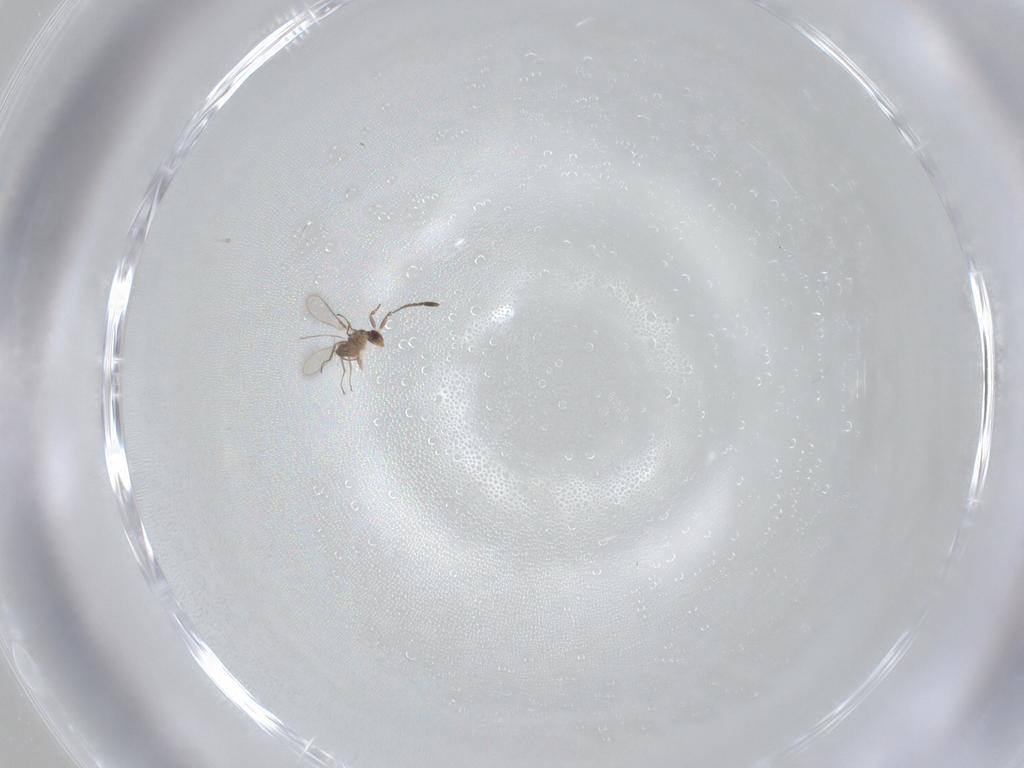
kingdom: Animalia
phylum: Arthropoda
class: Insecta
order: Hymenoptera
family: Mymaridae
